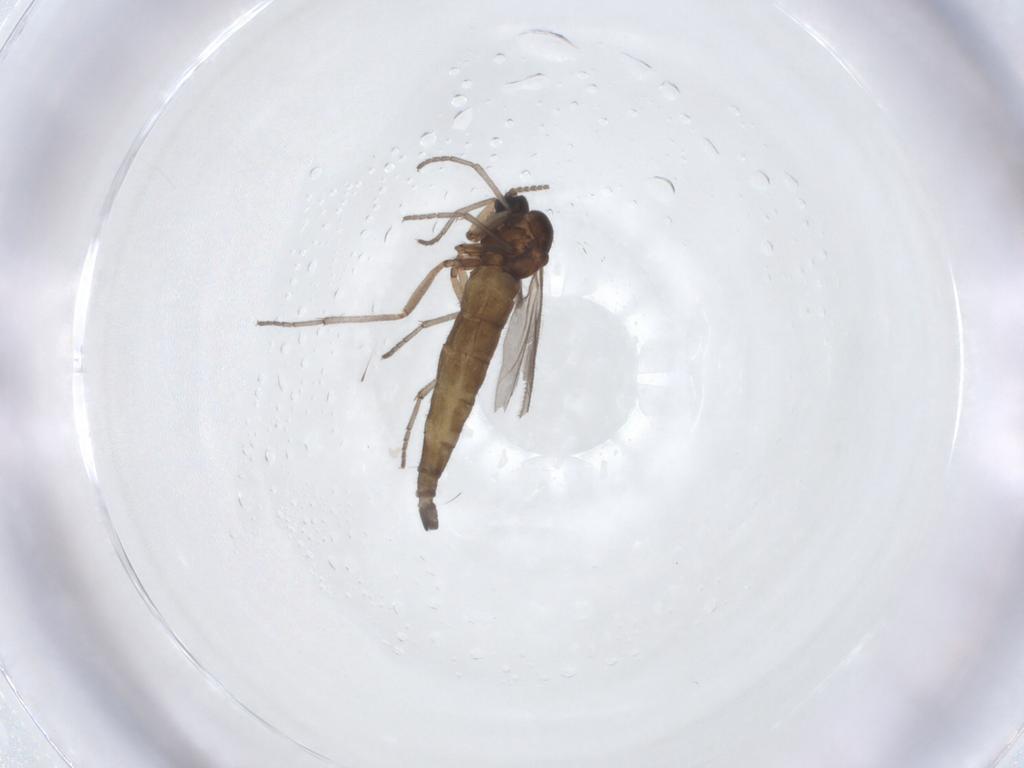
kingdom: Animalia
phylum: Arthropoda
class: Insecta
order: Diptera
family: Sciaridae
